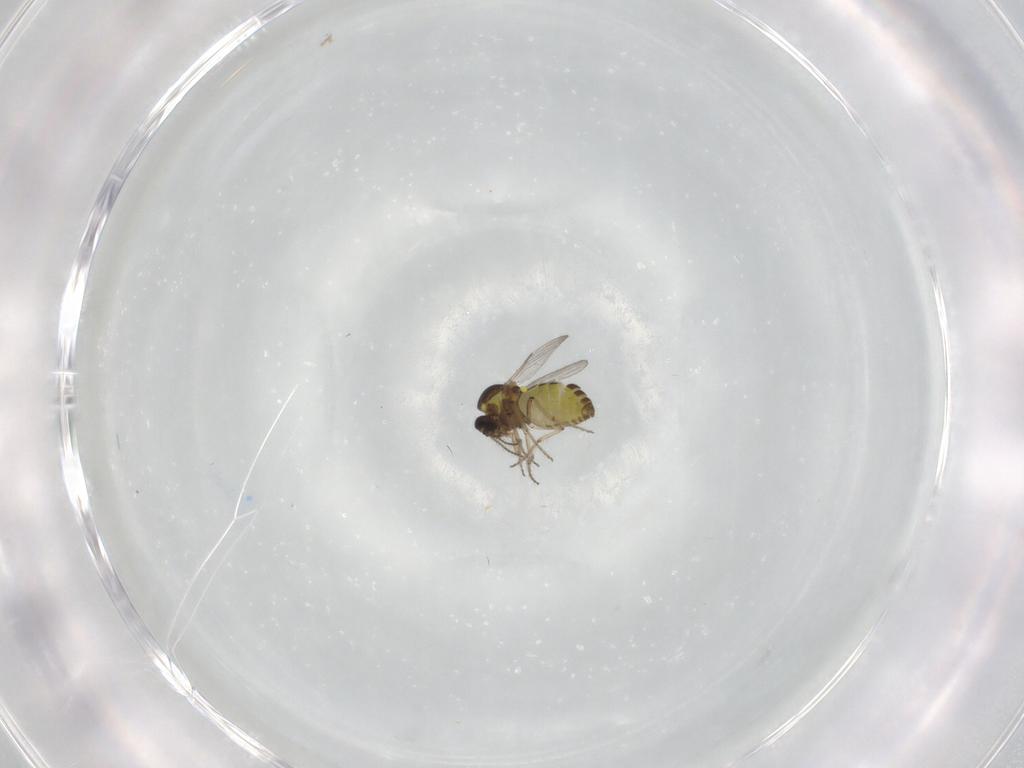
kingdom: Animalia
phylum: Arthropoda
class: Insecta
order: Diptera
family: Ceratopogonidae
